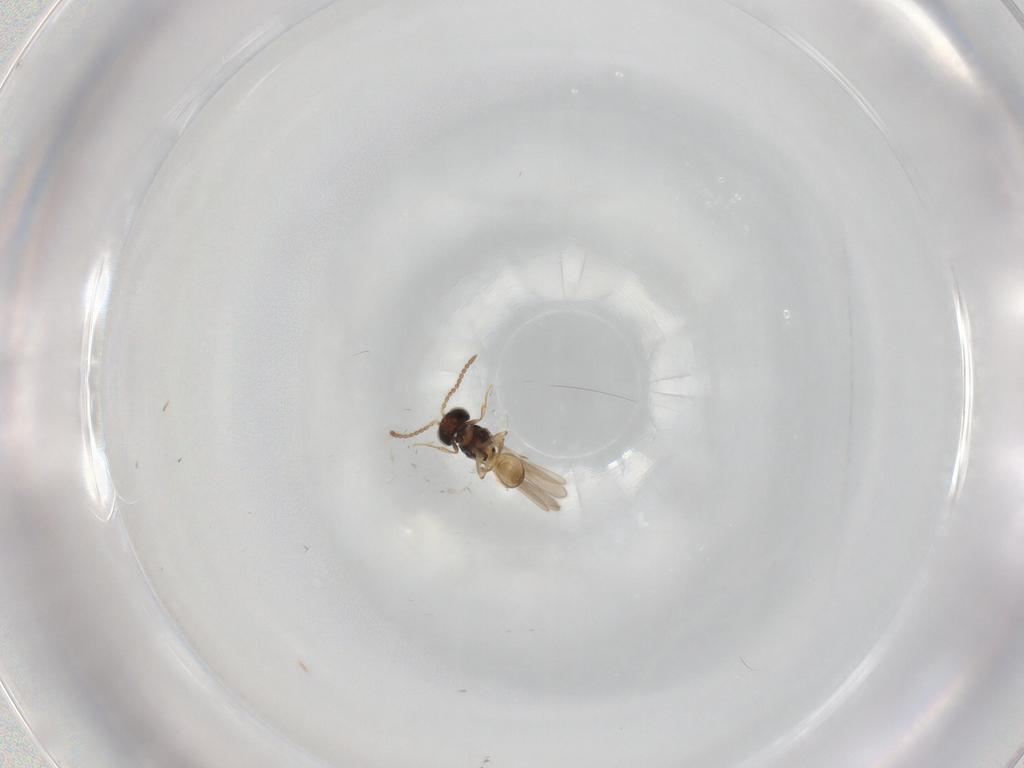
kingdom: Animalia
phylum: Arthropoda
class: Insecta
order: Hymenoptera
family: Scelionidae
